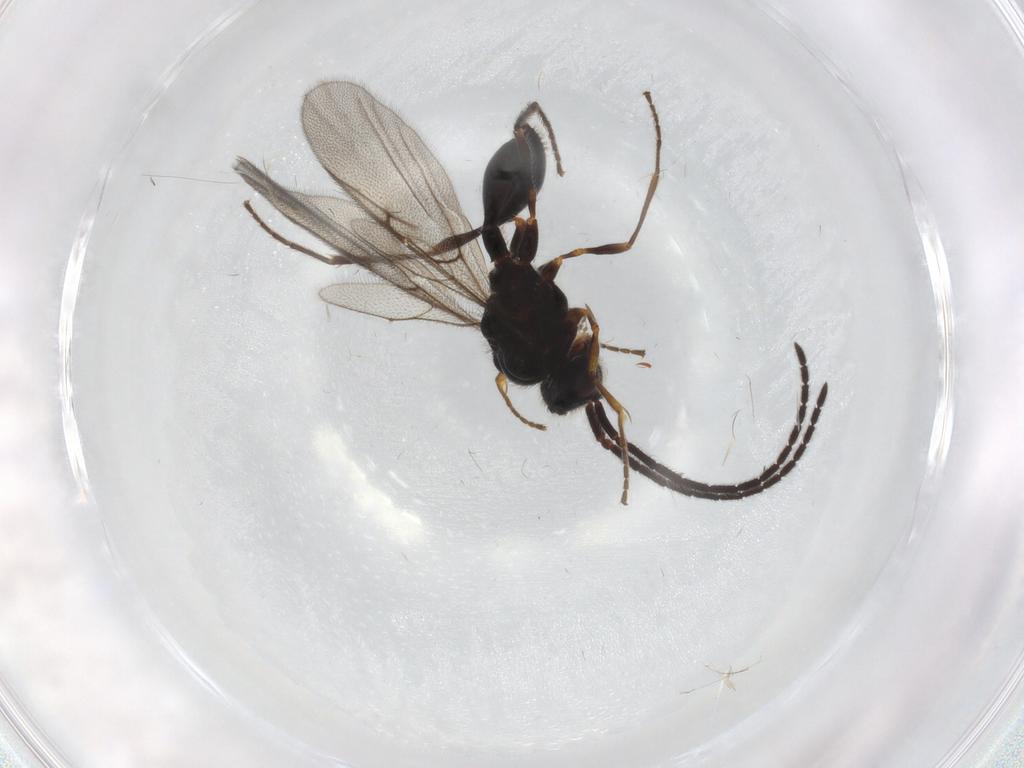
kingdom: Animalia
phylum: Arthropoda
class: Insecta
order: Hymenoptera
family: Diapriidae
